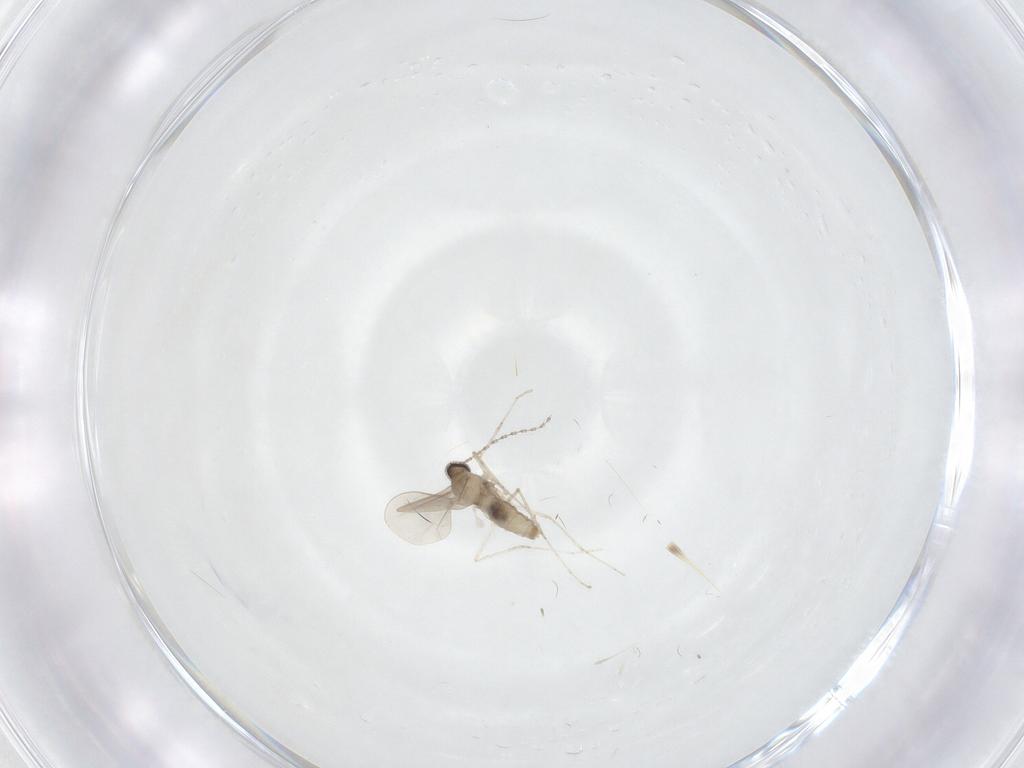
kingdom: Animalia
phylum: Arthropoda
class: Insecta
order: Diptera
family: Cecidomyiidae
